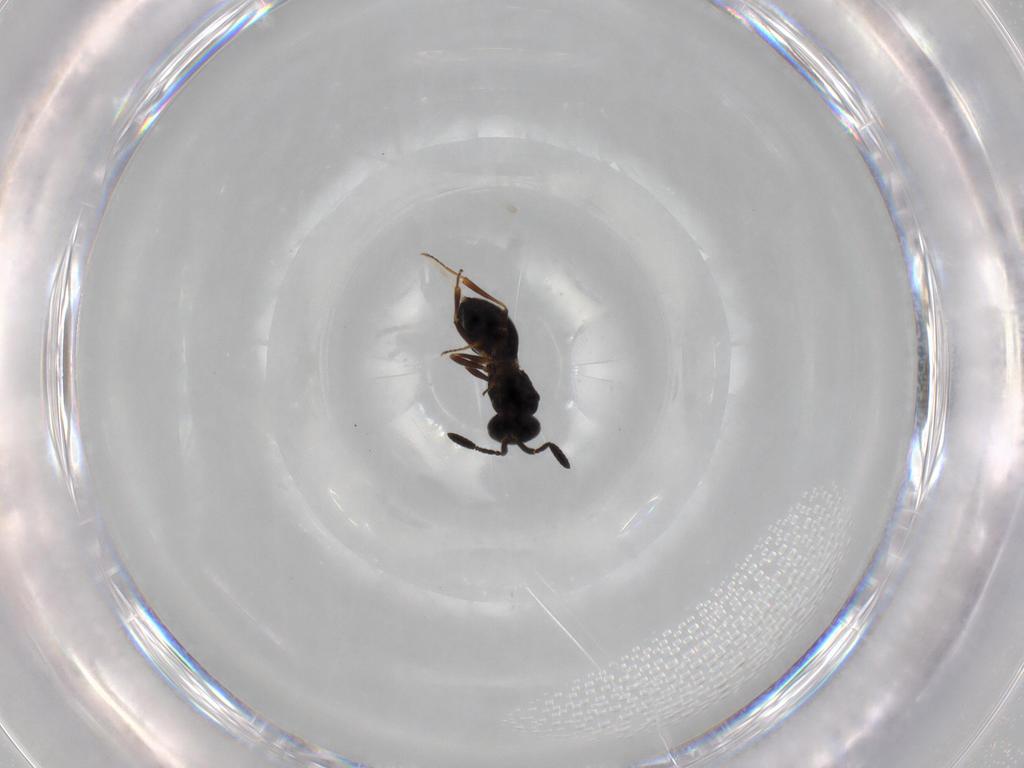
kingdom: Animalia
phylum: Arthropoda
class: Insecta
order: Hymenoptera
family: Scelionidae
